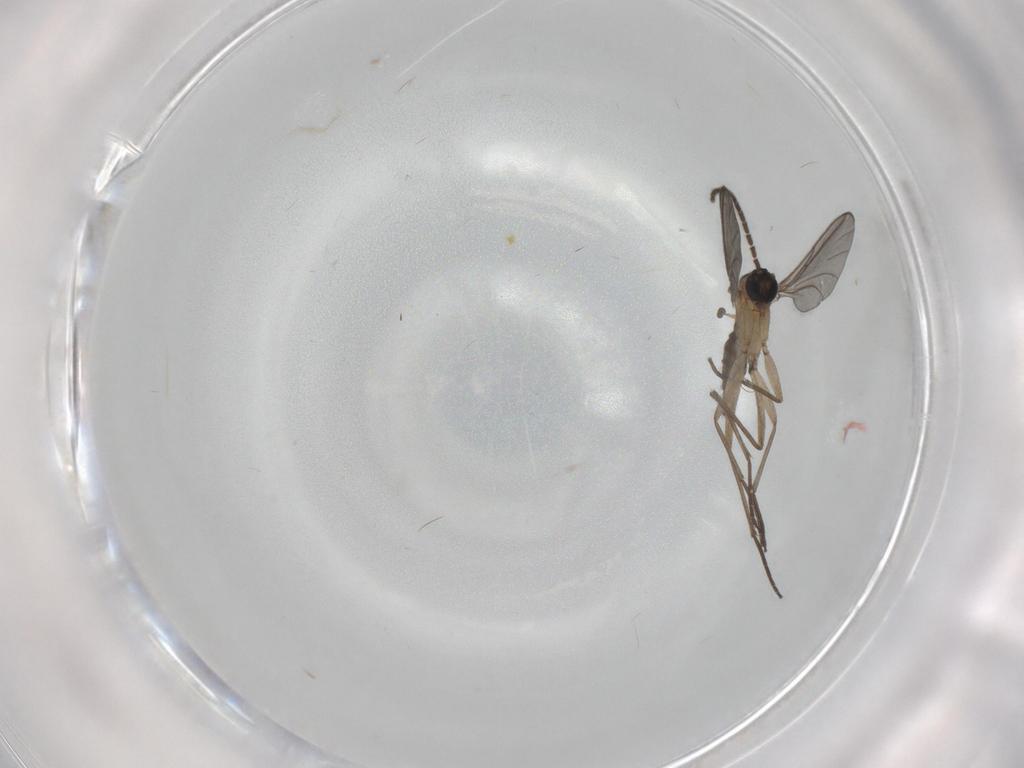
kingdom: Animalia
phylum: Arthropoda
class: Insecta
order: Diptera
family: Sciaridae
